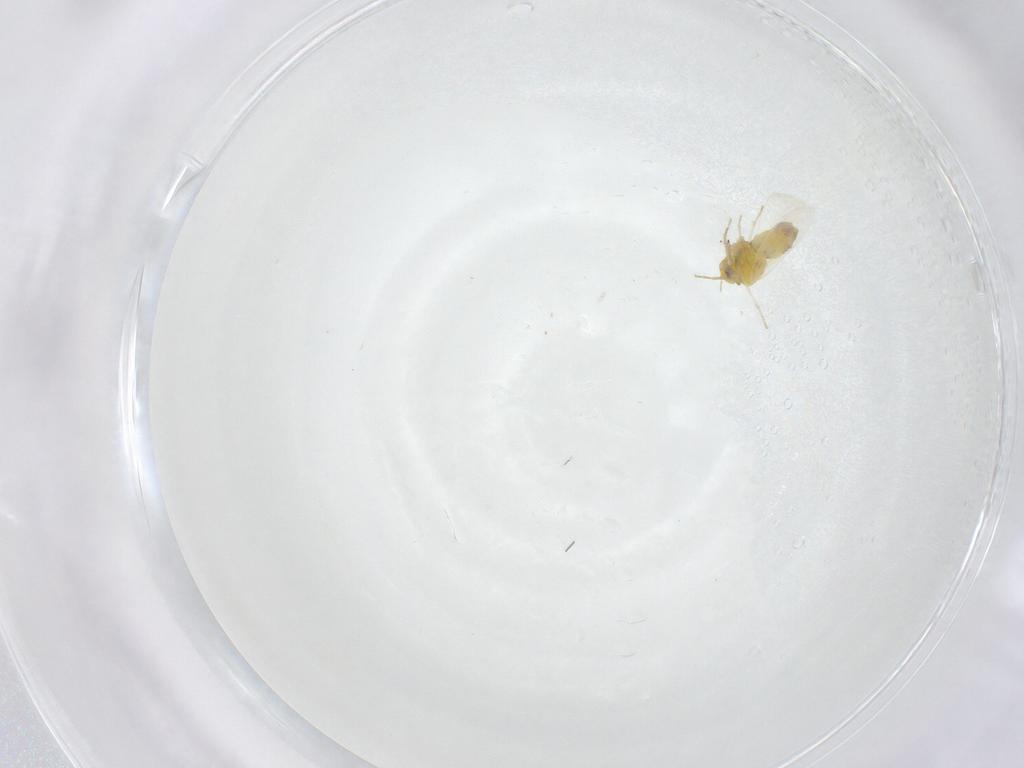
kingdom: Animalia
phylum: Arthropoda
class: Insecta
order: Hemiptera
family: Aleyrodidae
